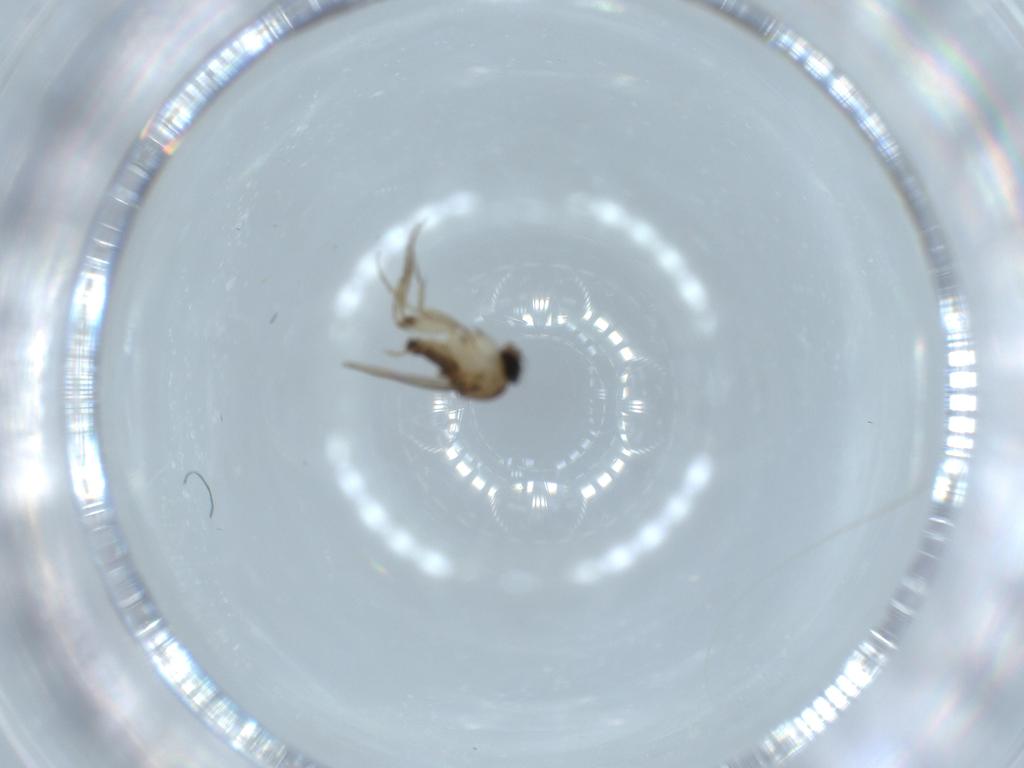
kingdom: Animalia
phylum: Arthropoda
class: Insecta
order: Diptera
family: Phoridae
